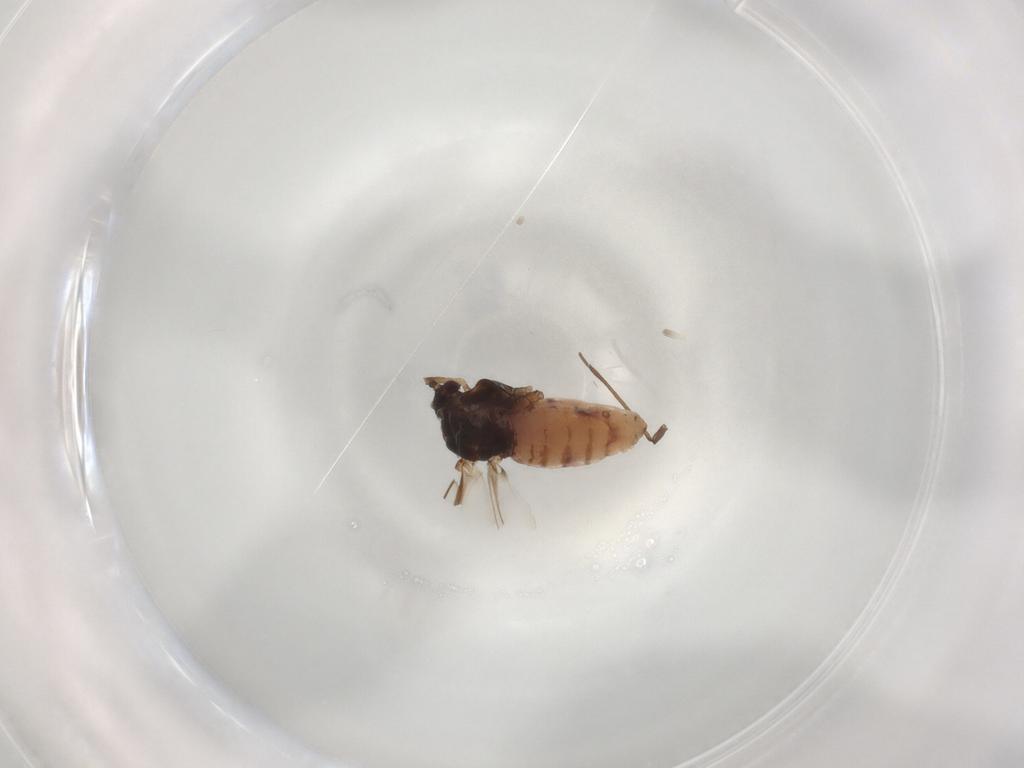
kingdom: Animalia
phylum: Arthropoda
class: Insecta
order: Hemiptera
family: Aphididae
